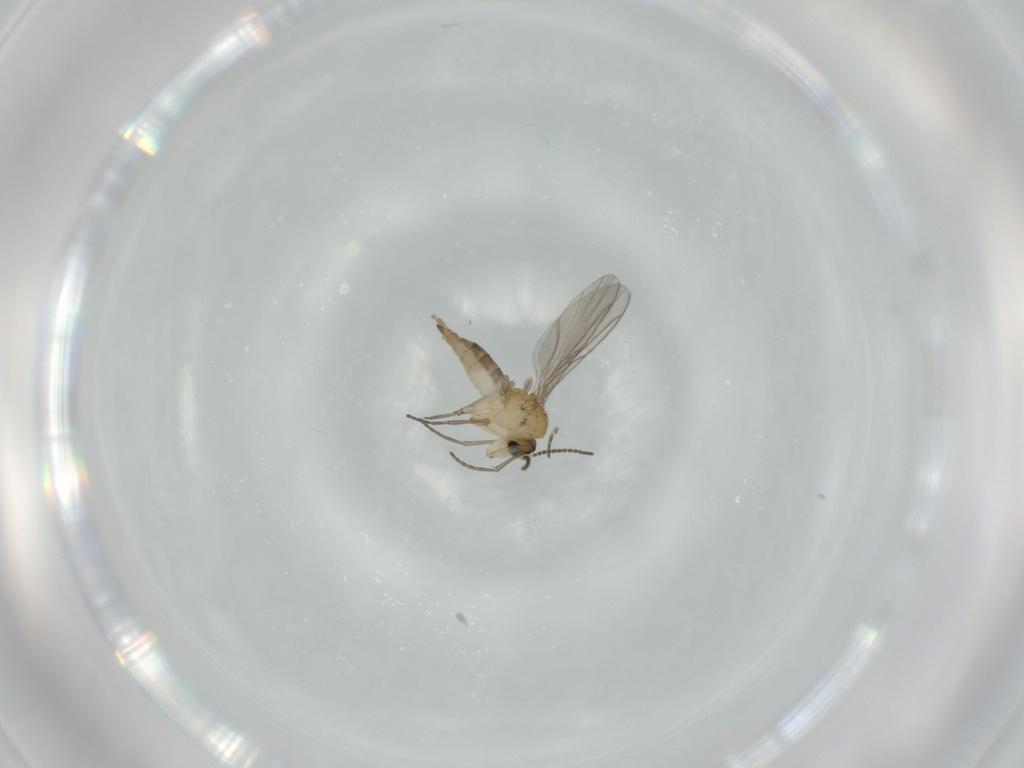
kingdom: Animalia
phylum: Arthropoda
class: Insecta
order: Diptera
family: Sciaridae
